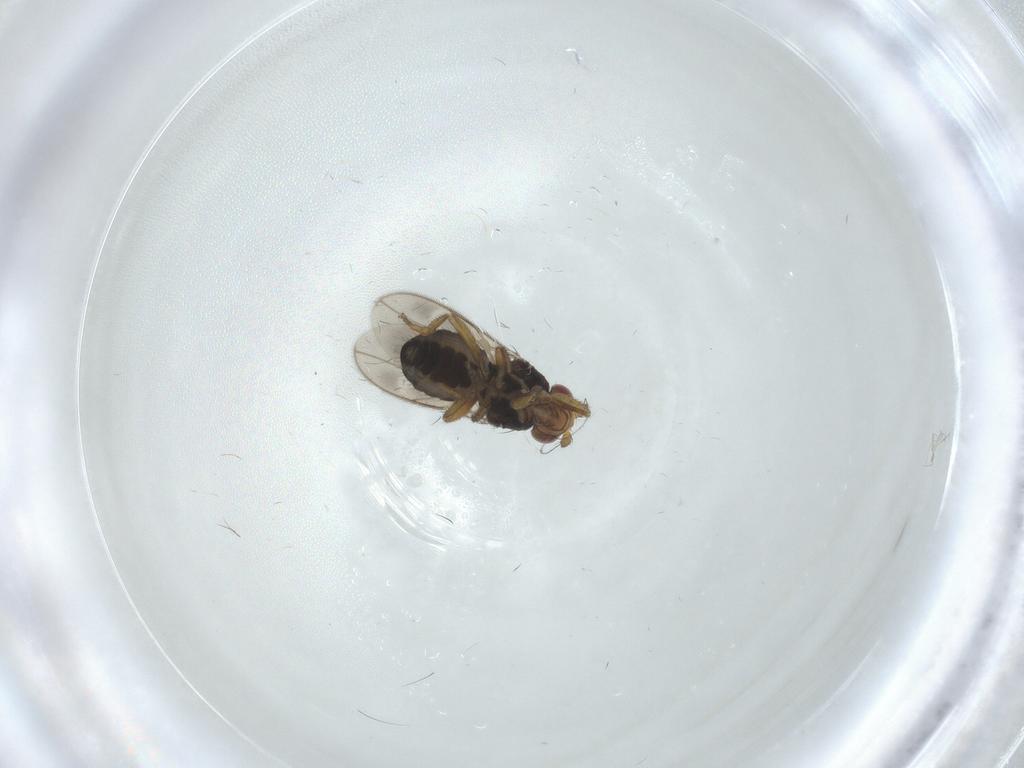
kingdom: Animalia
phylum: Arthropoda
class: Insecta
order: Diptera
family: Sphaeroceridae
